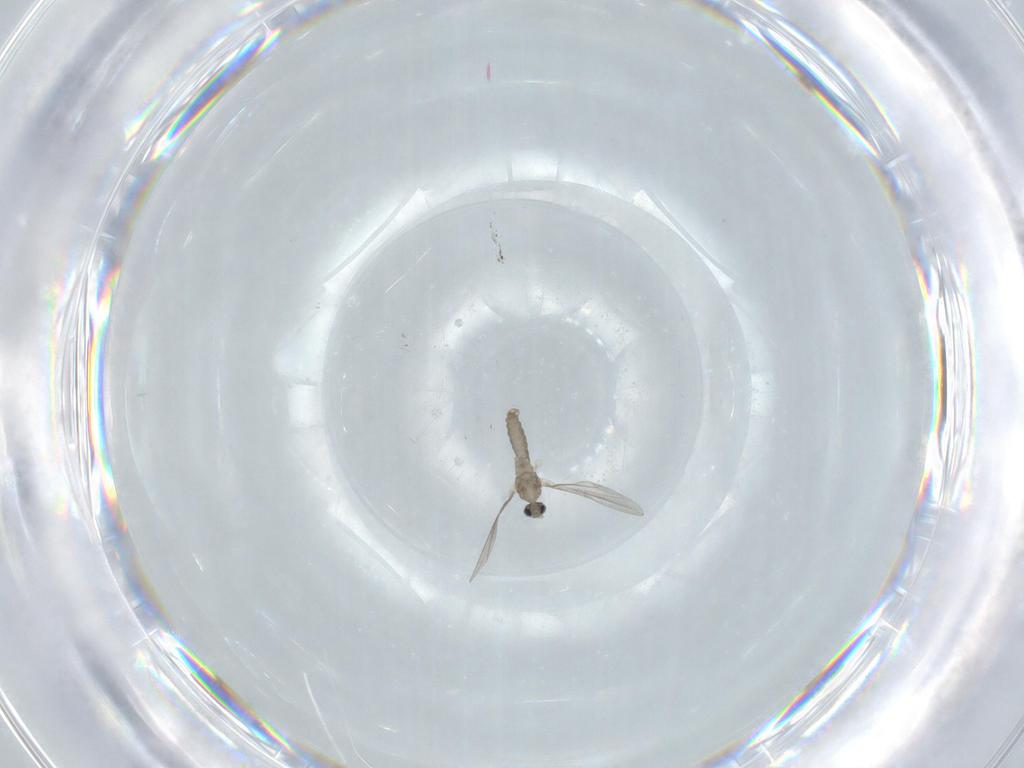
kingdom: Animalia
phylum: Arthropoda
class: Insecta
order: Diptera
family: Cecidomyiidae
